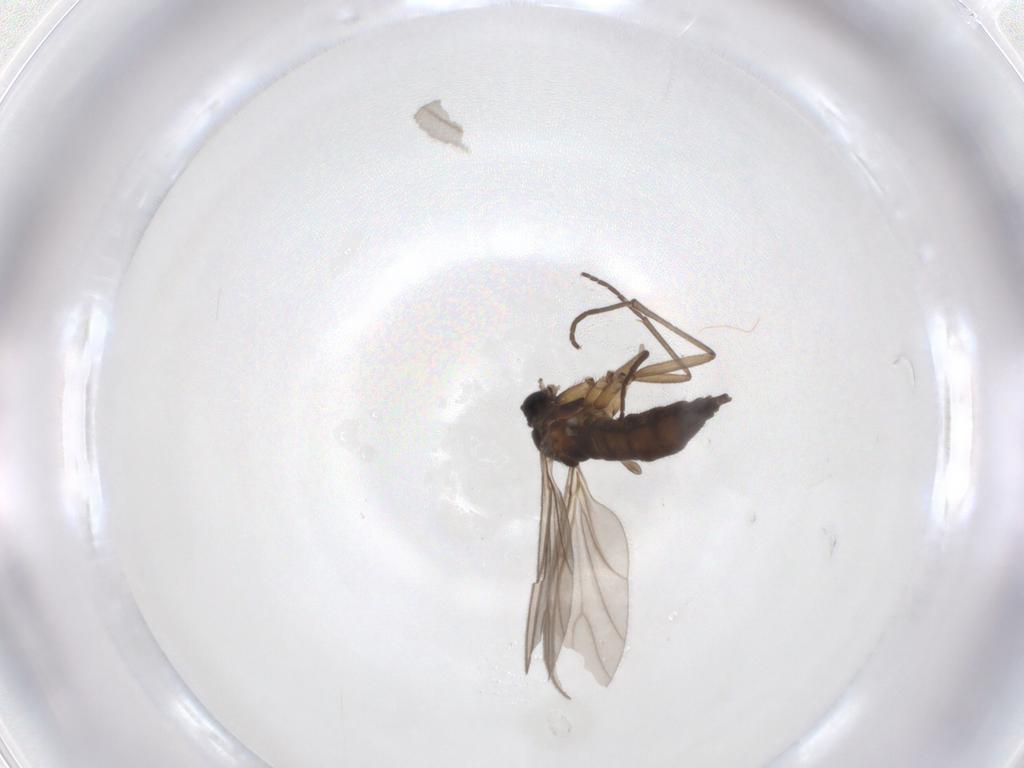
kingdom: Animalia
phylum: Arthropoda
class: Insecta
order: Diptera
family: Sciaridae
